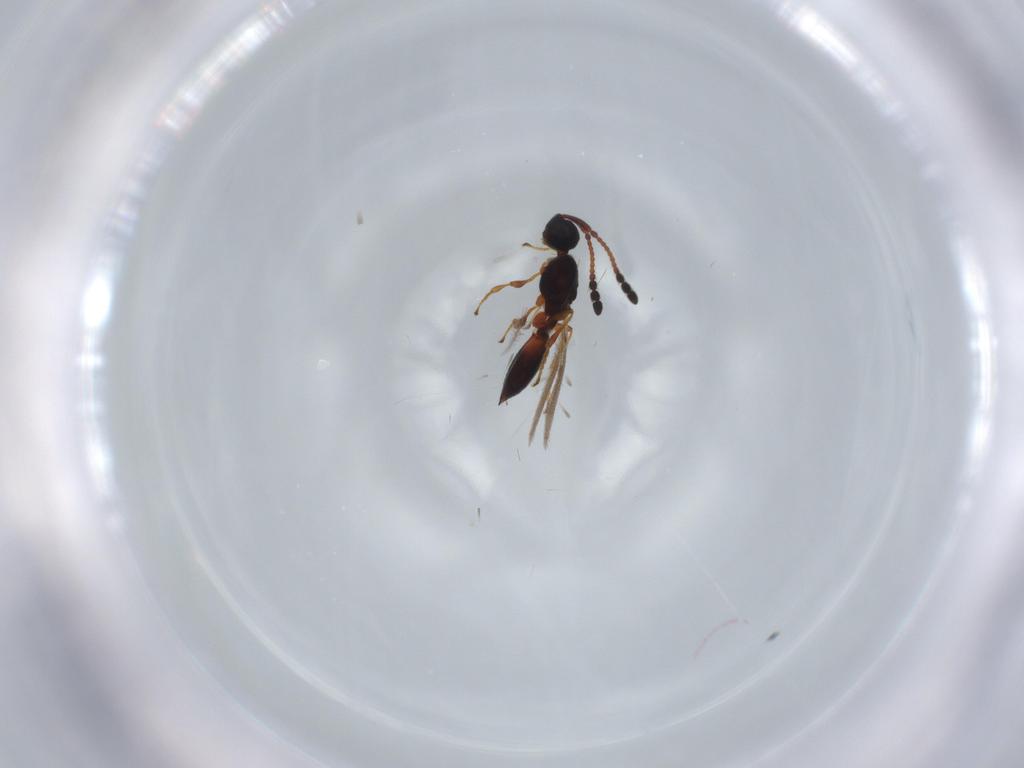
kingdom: Animalia
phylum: Arthropoda
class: Insecta
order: Hymenoptera
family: Diapriidae
